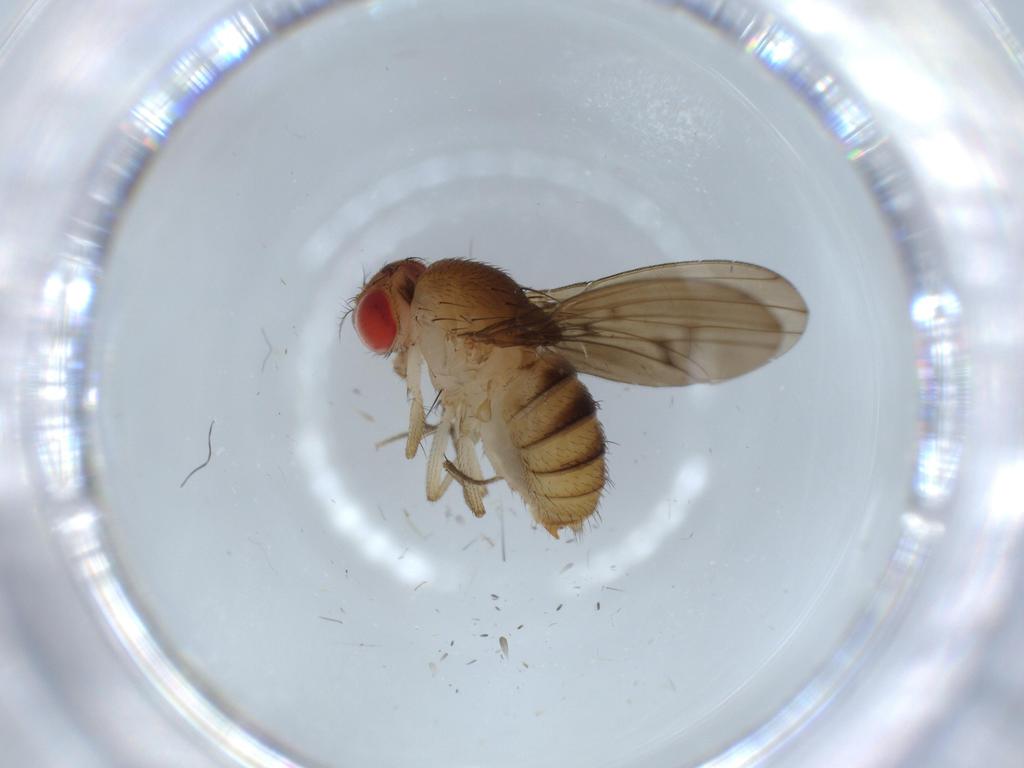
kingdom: Animalia
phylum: Arthropoda
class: Insecta
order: Diptera
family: Drosophilidae
